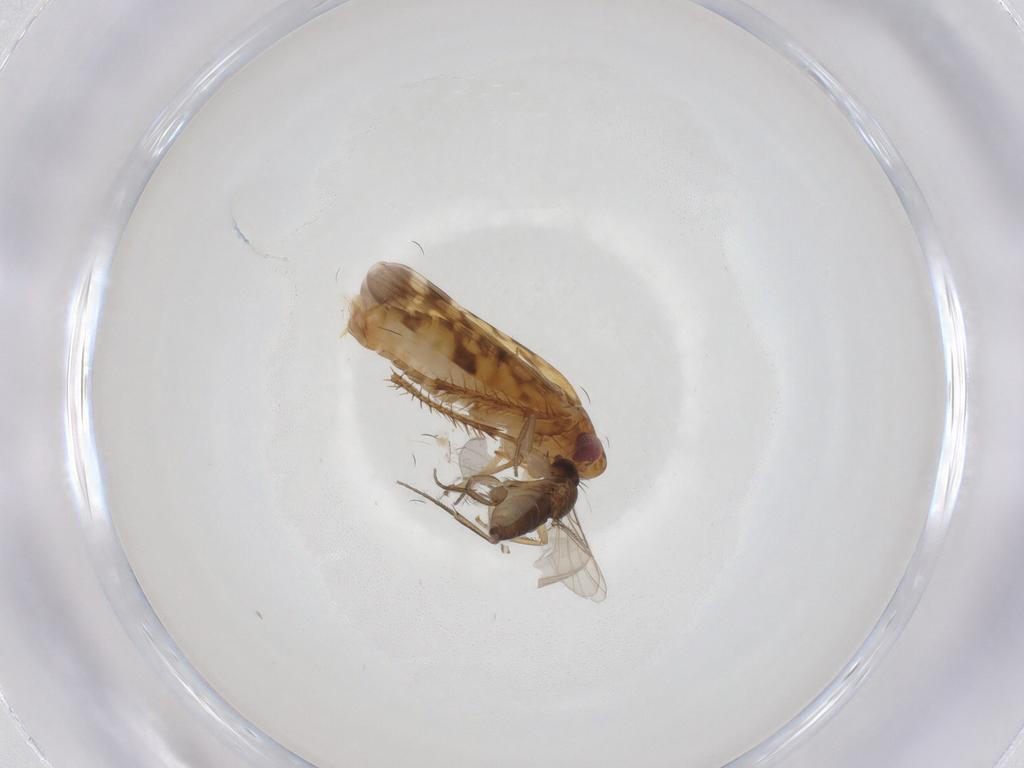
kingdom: Animalia
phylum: Arthropoda
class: Insecta
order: Diptera
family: Phoridae
